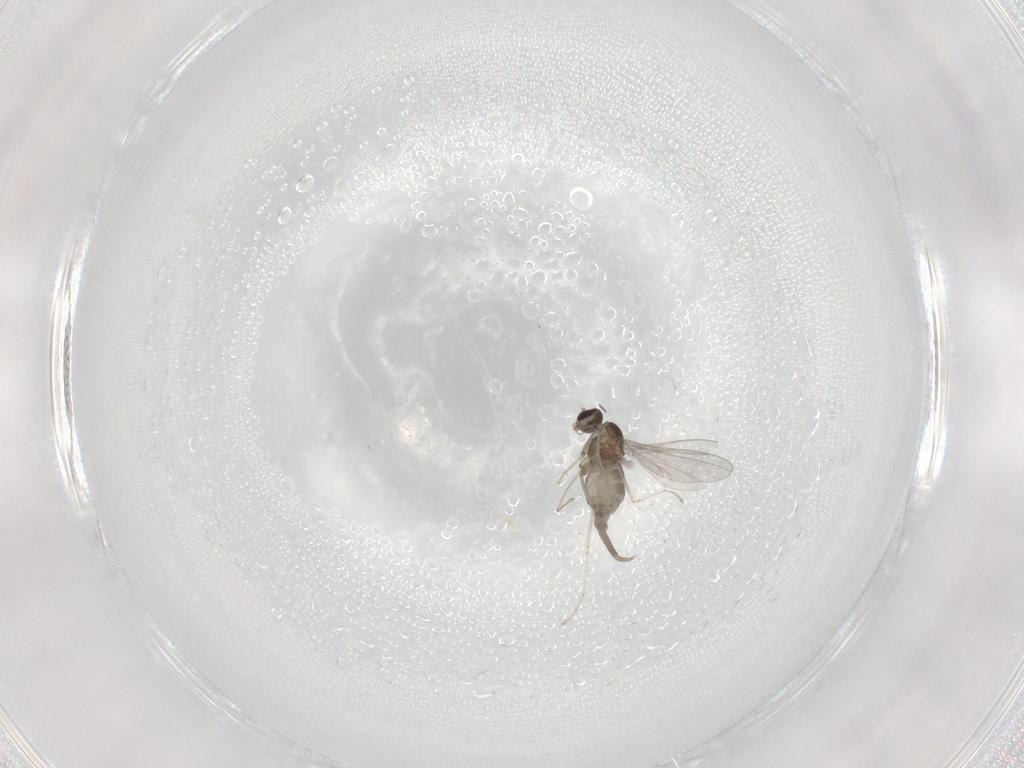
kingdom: Animalia
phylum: Arthropoda
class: Insecta
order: Diptera
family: Cecidomyiidae
